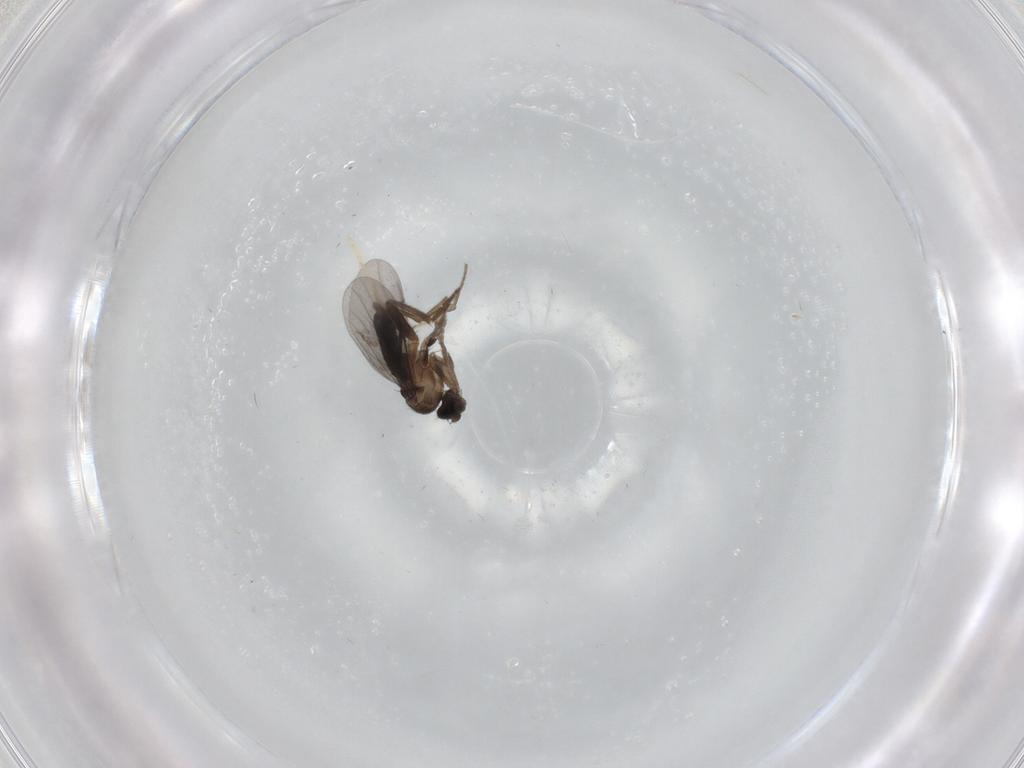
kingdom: Animalia
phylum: Arthropoda
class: Insecta
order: Diptera
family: Phoridae
